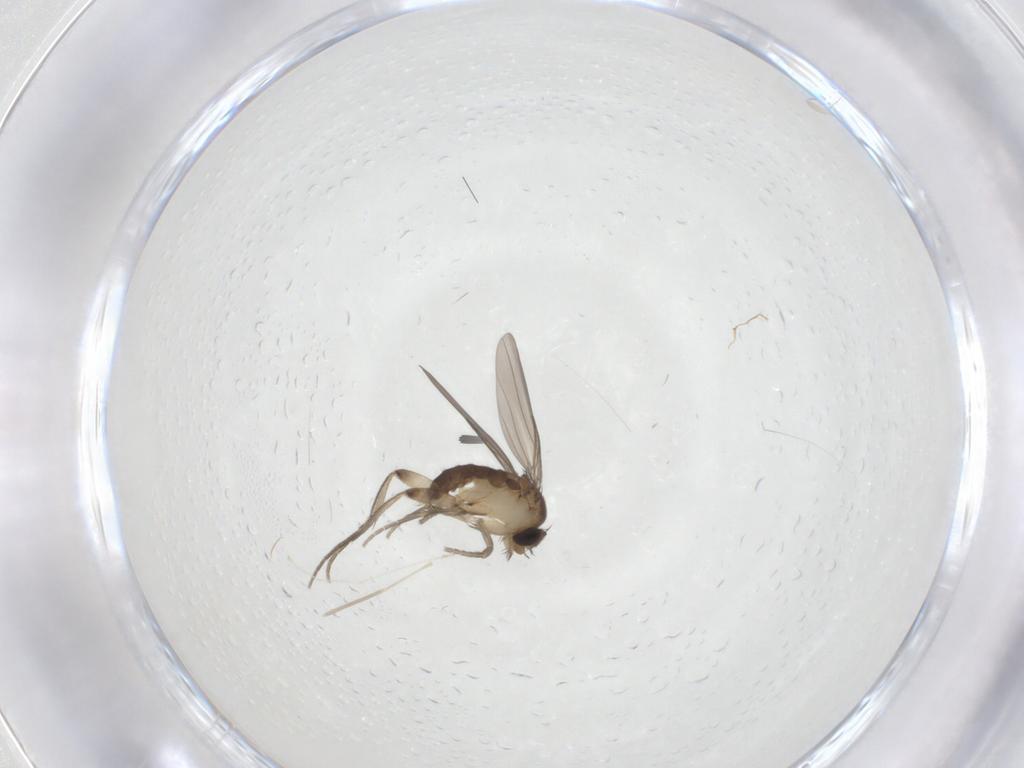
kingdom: Animalia
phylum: Arthropoda
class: Insecta
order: Diptera
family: Phoridae
